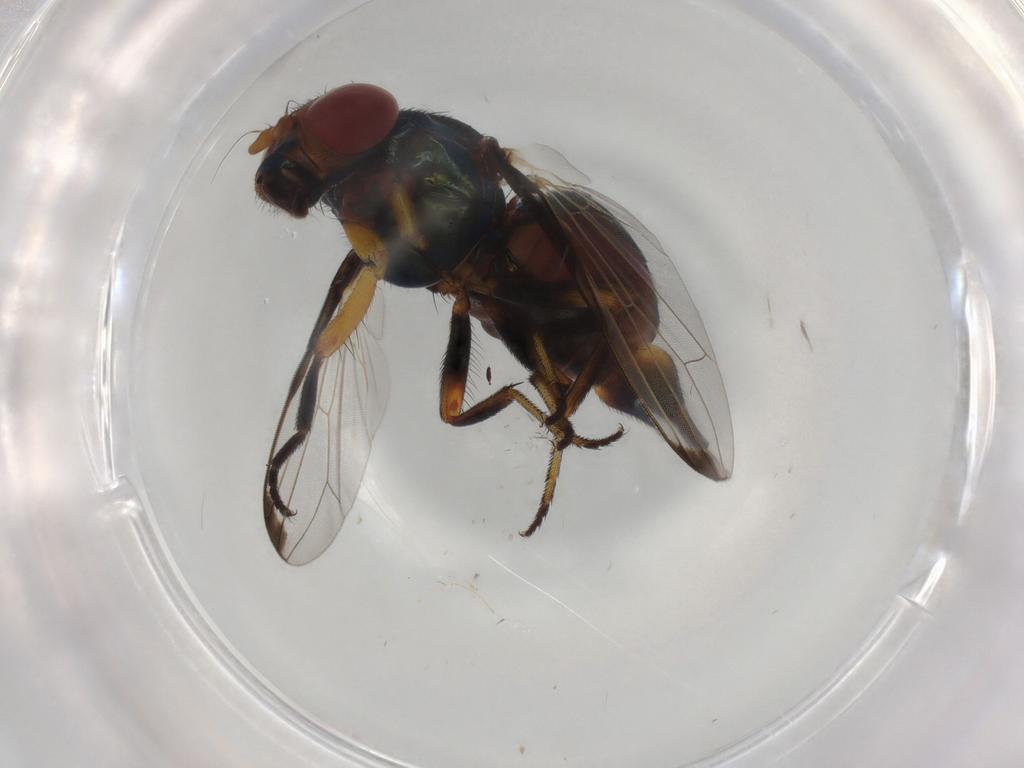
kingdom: Animalia
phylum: Arthropoda
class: Insecta
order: Diptera
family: Ulidiidae
